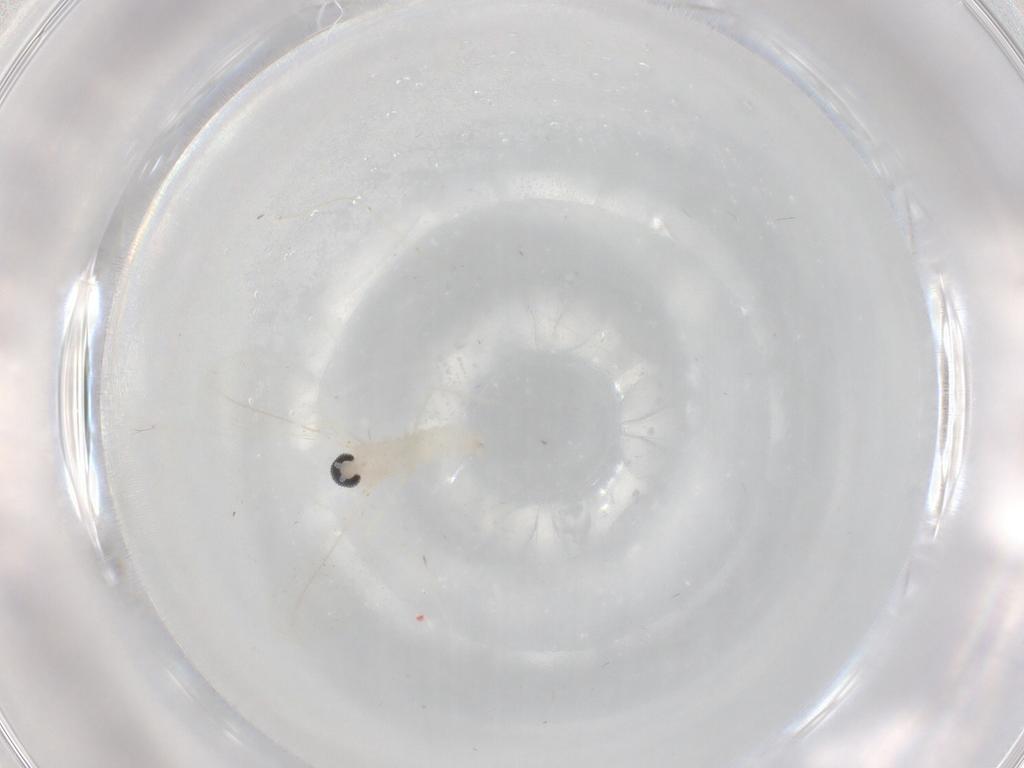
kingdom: Animalia
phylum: Arthropoda
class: Insecta
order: Diptera
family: Cecidomyiidae
